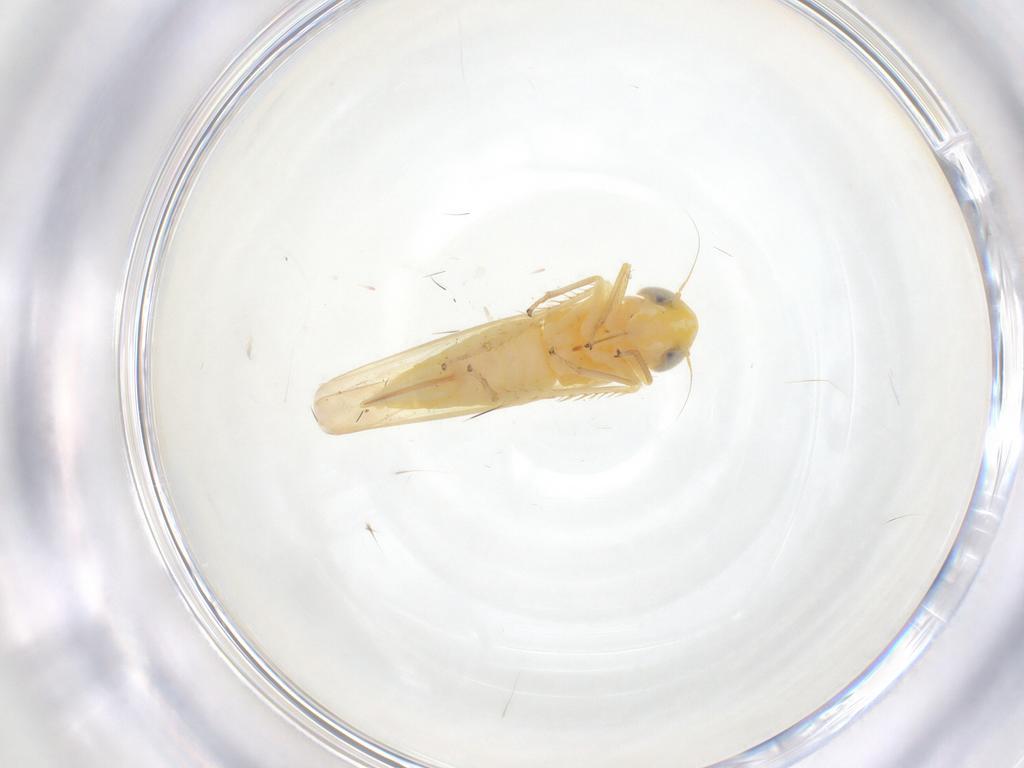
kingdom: Animalia
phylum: Arthropoda
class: Insecta
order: Hemiptera
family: Cicadellidae
